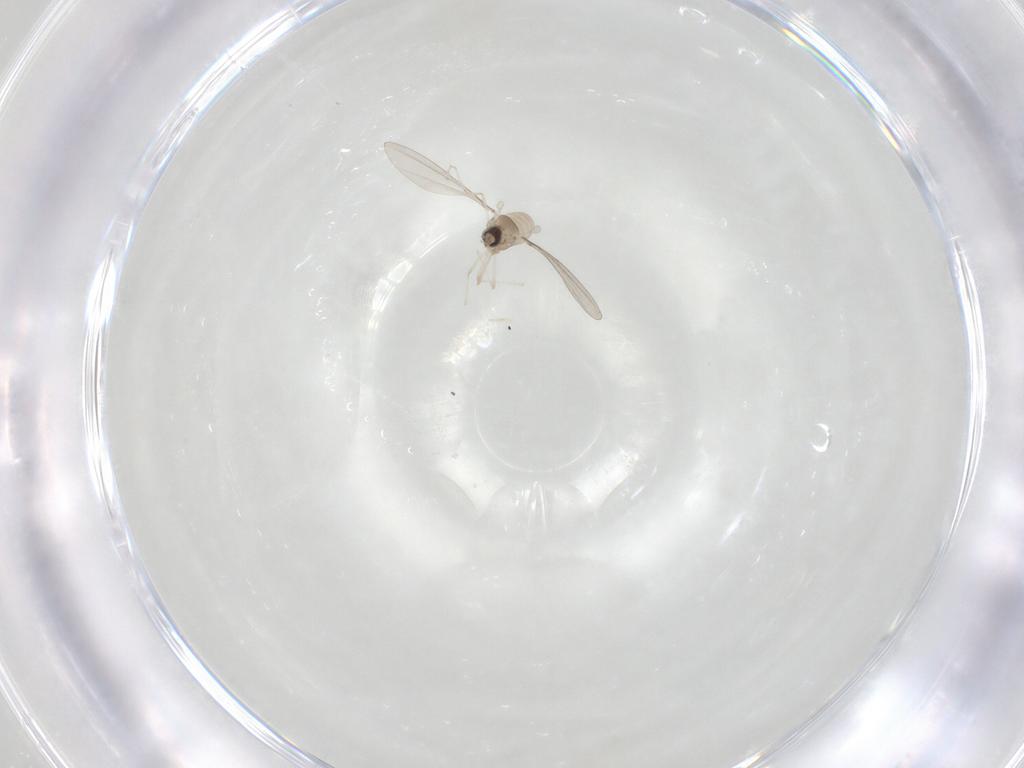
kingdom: Animalia
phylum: Arthropoda
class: Insecta
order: Diptera
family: Cecidomyiidae
